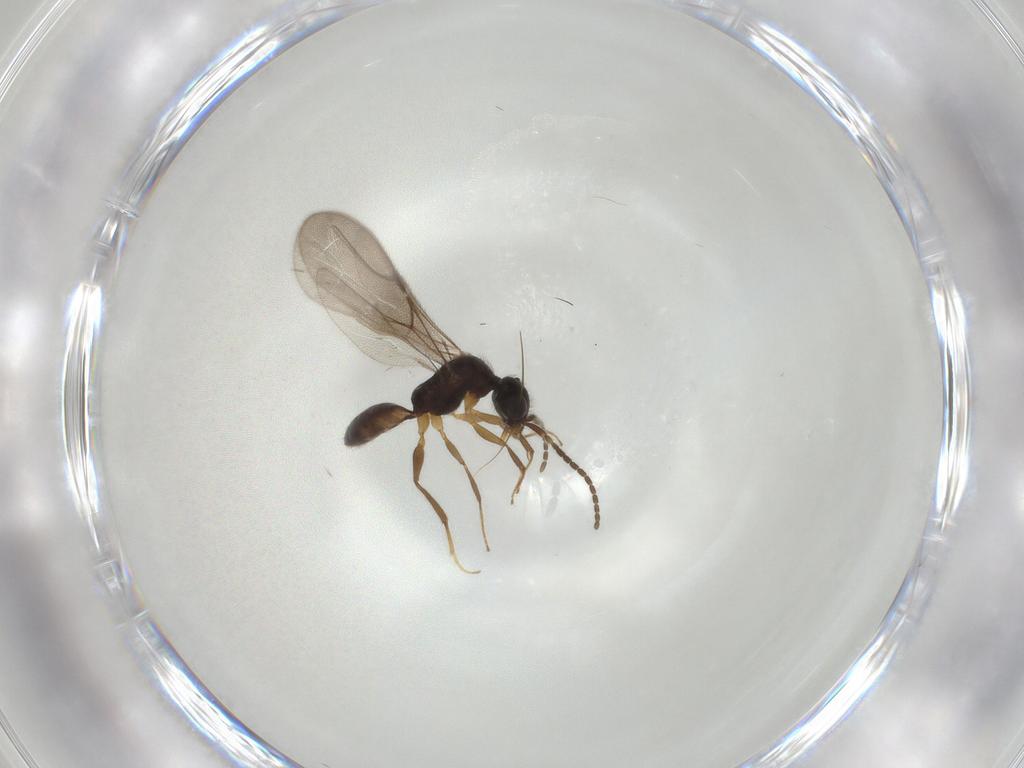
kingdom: Animalia
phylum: Arthropoda
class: Insecta
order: Hymenoptera
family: Bethylidae
